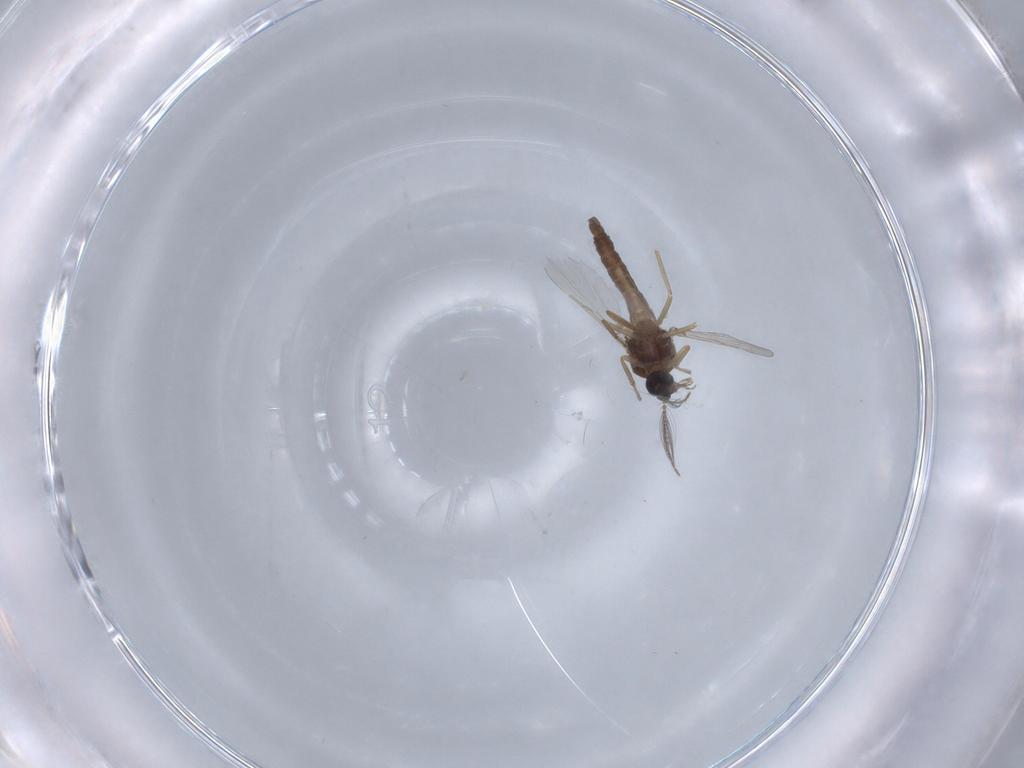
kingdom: Animalia
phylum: Arthropoda
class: Insecta
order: Diptera
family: Ceratopogonidae
